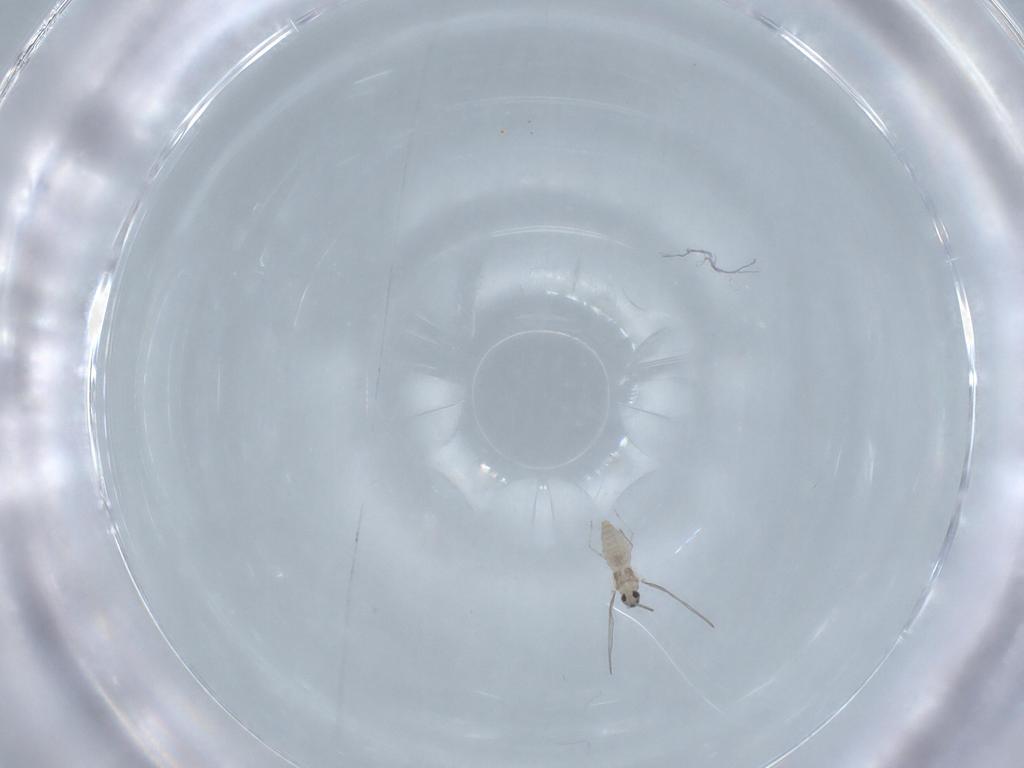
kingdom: Animalia
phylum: Arthropoda
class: Insecta
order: Diptera
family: Cecidomyiidae
